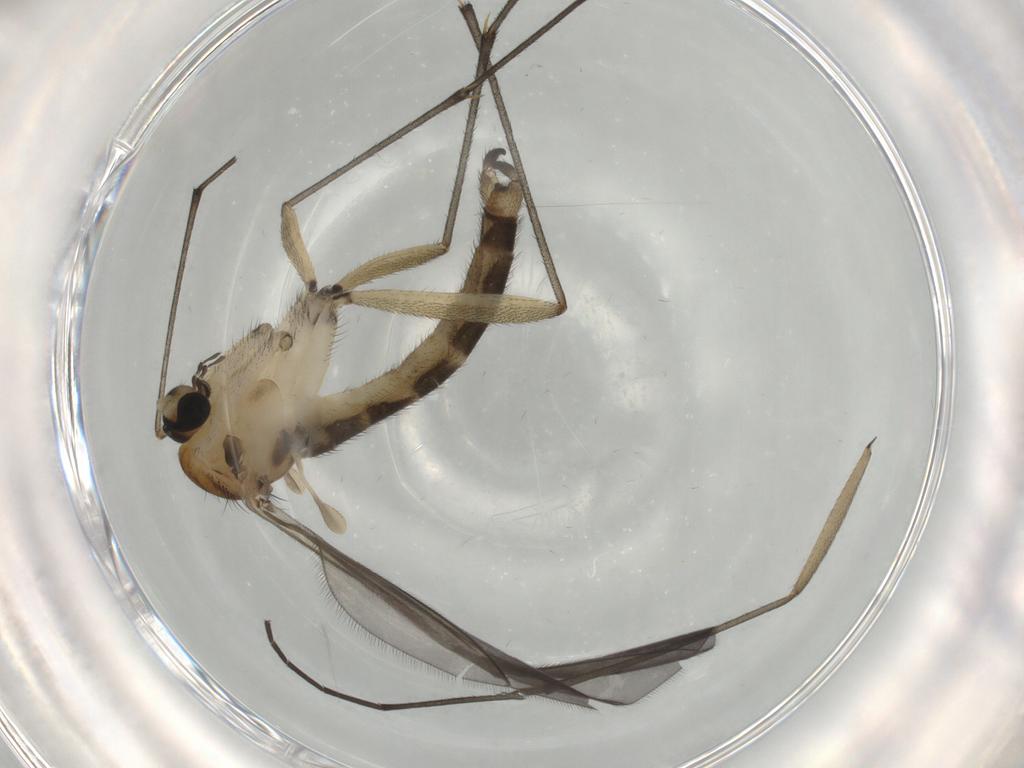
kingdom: Animalia
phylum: Arthropoda
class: Insecta
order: Diptera
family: Sciaridae
